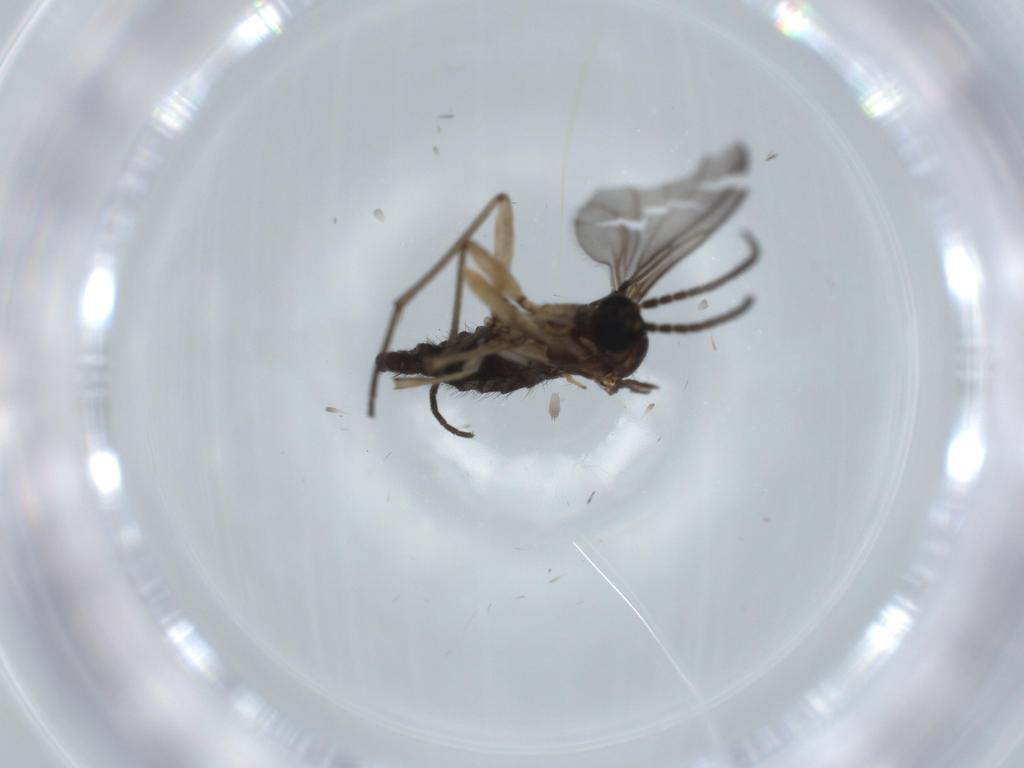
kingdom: Animalia
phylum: Arthropoda
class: Insecta
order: Diptera
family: Sciaridae
